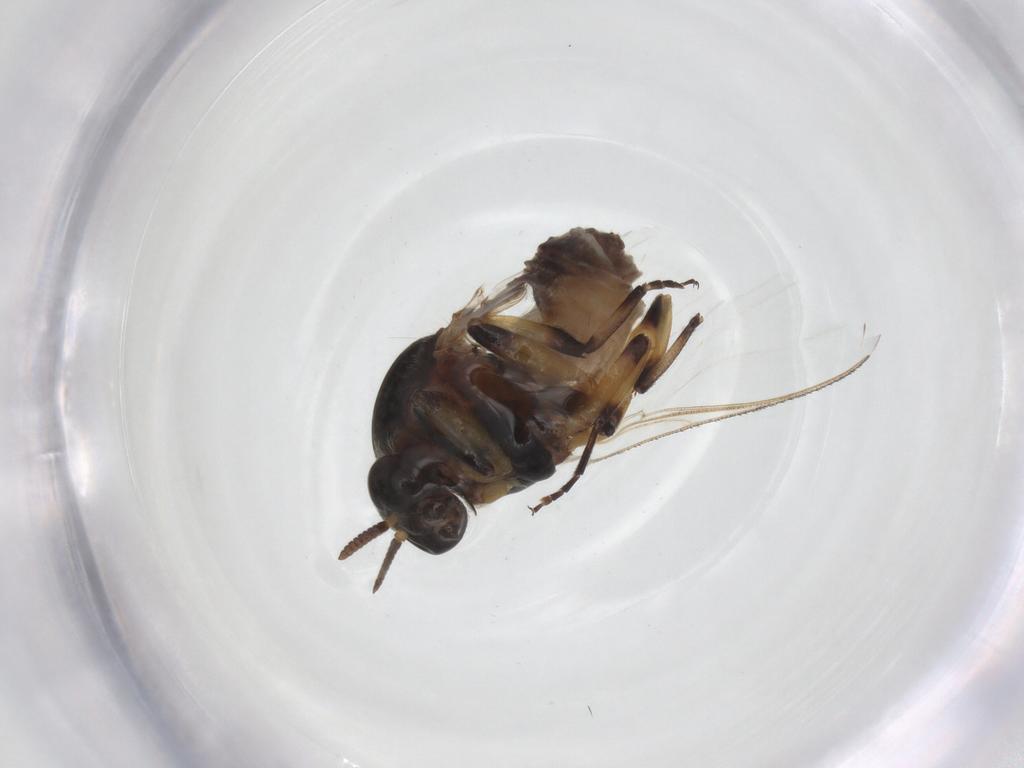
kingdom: Animalia
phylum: Arthropoda
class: Insecta
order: Diptera
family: Simuliidae
